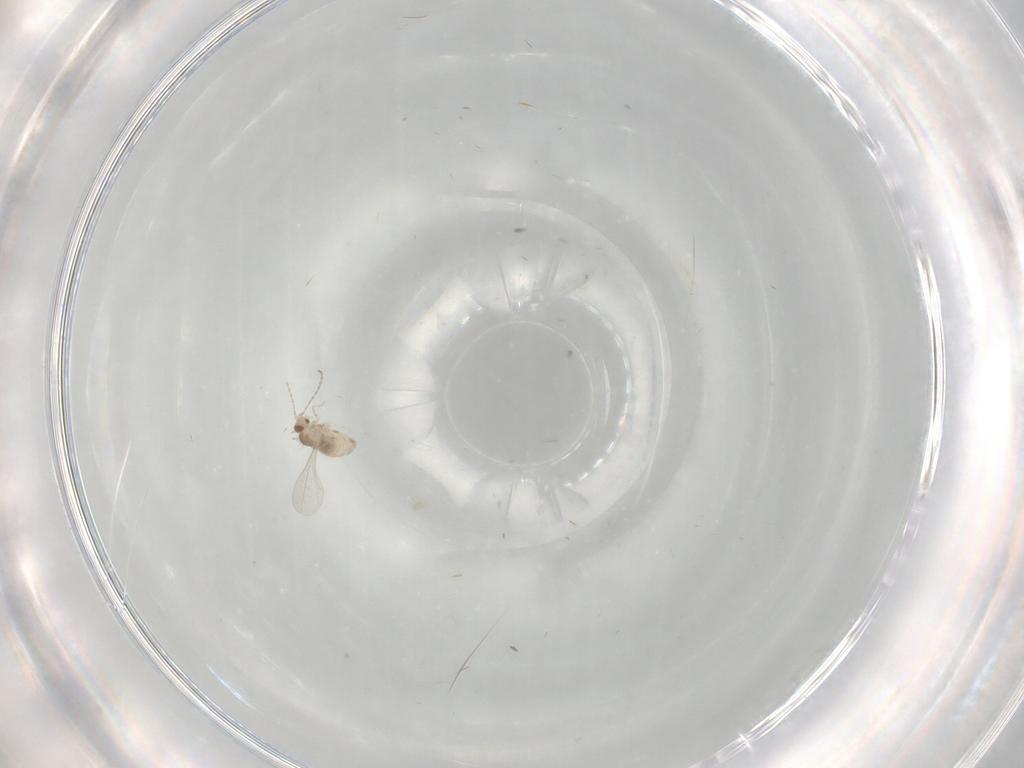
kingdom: Animalia
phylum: Arthropoda
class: Insecta
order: Diptera
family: Cecidomyiidae
